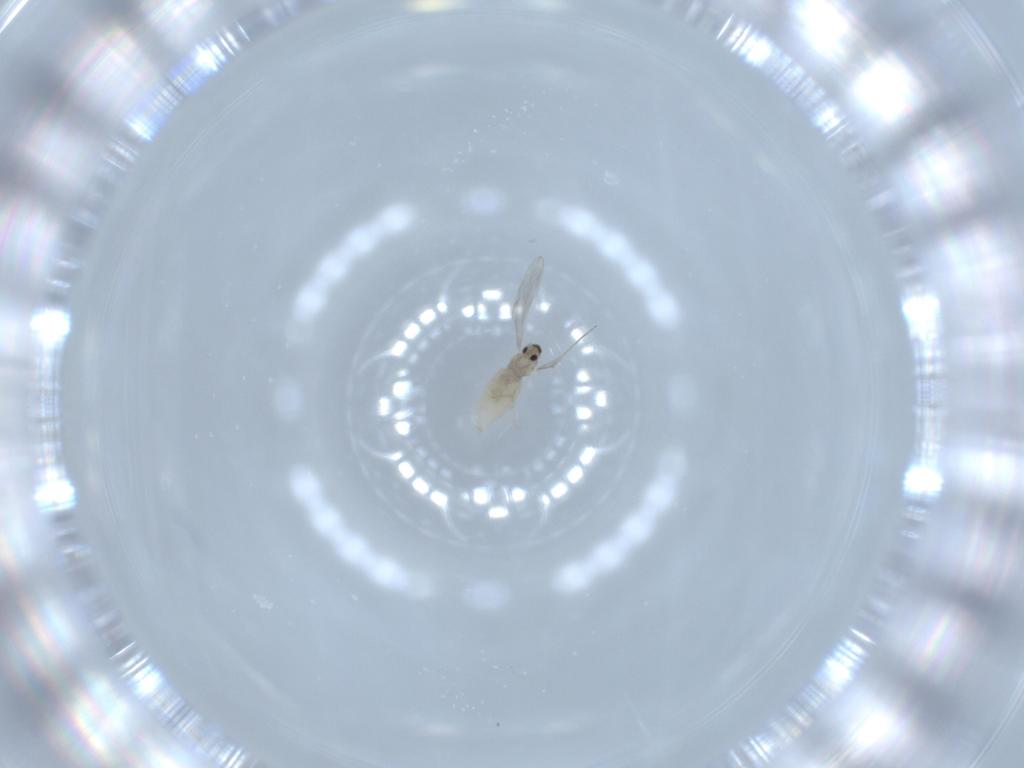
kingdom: Animalia
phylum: Arthropoda
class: Insecta
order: Diptera
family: Cecidomyiidae
